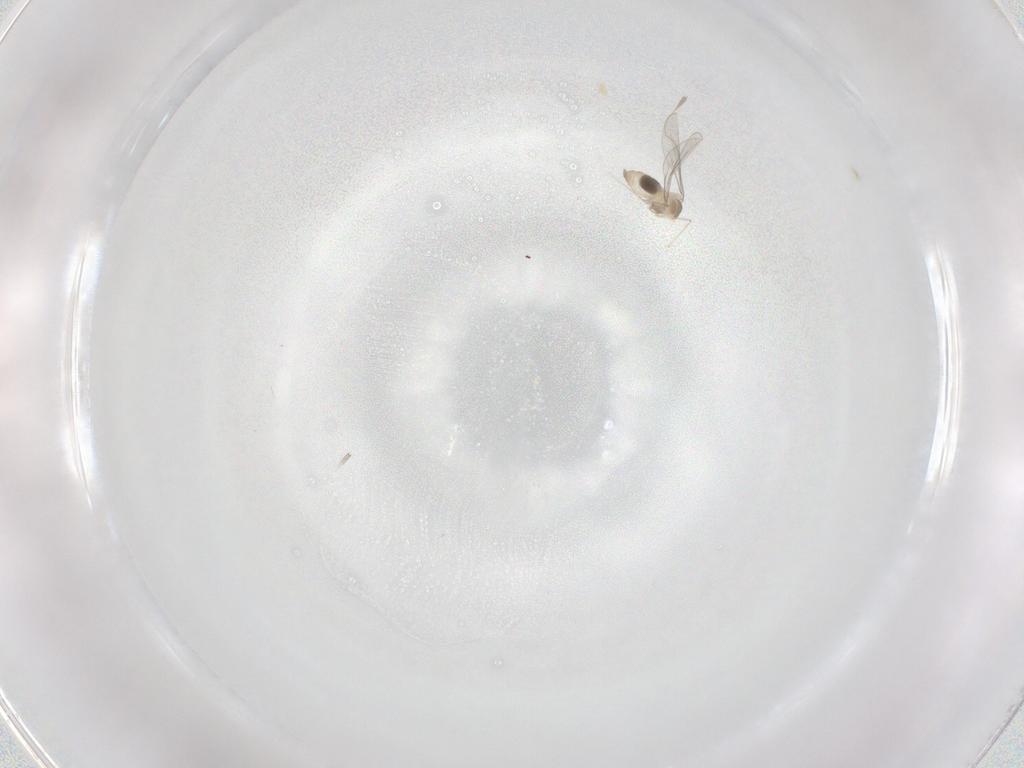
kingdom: Animalia
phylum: Arthropoda
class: Insecta
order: Diptera
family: Sciaridae
